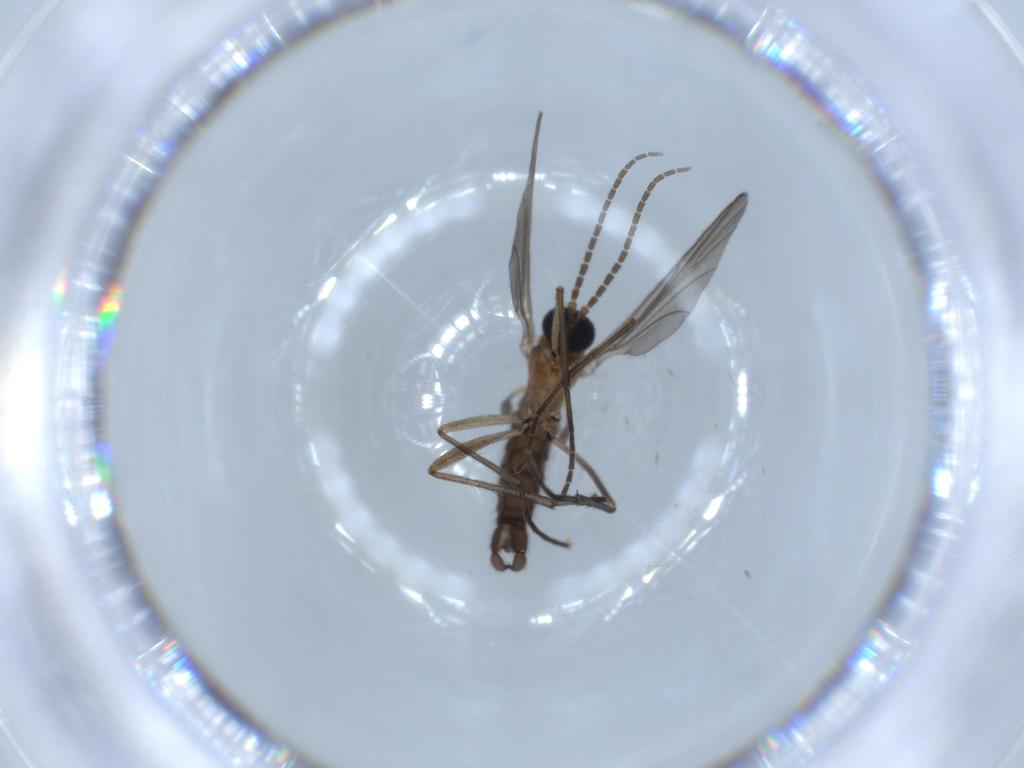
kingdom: Animalia
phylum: Arthropoda
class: Insecta
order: Diptera
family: Sciaridae
